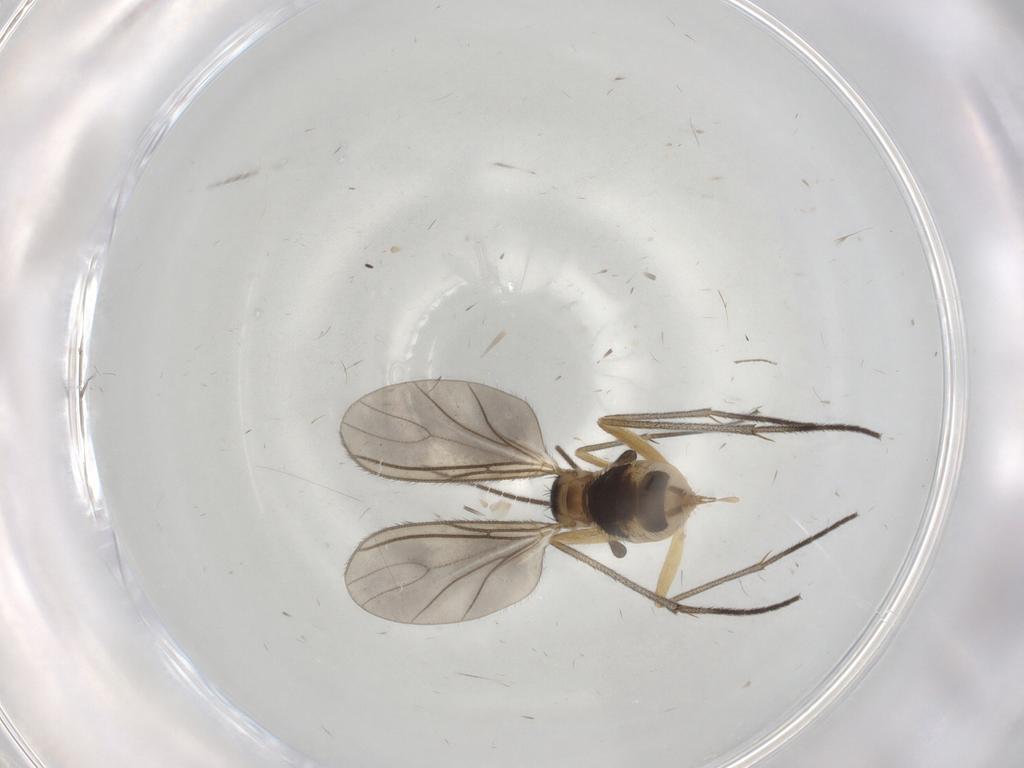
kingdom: Animalia
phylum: Arthropoda
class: Insecta
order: Diptera
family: Sciaridae
